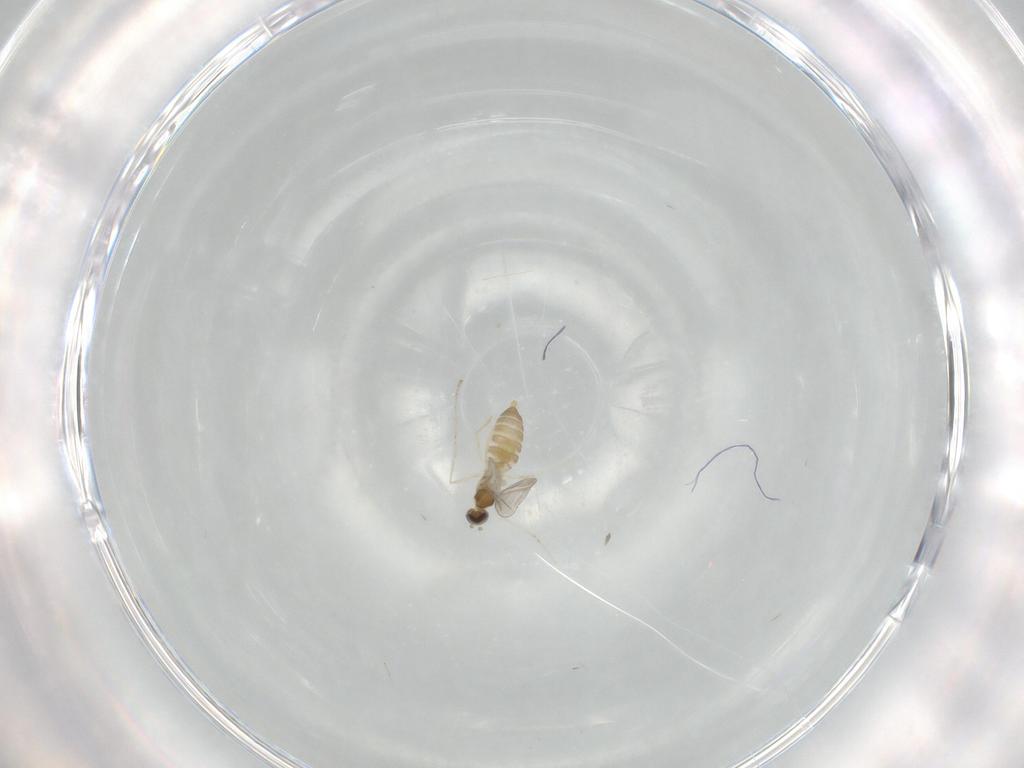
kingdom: Animalia
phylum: Arthropoda
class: Insecta
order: Diptera
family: Cecidomyiidae
